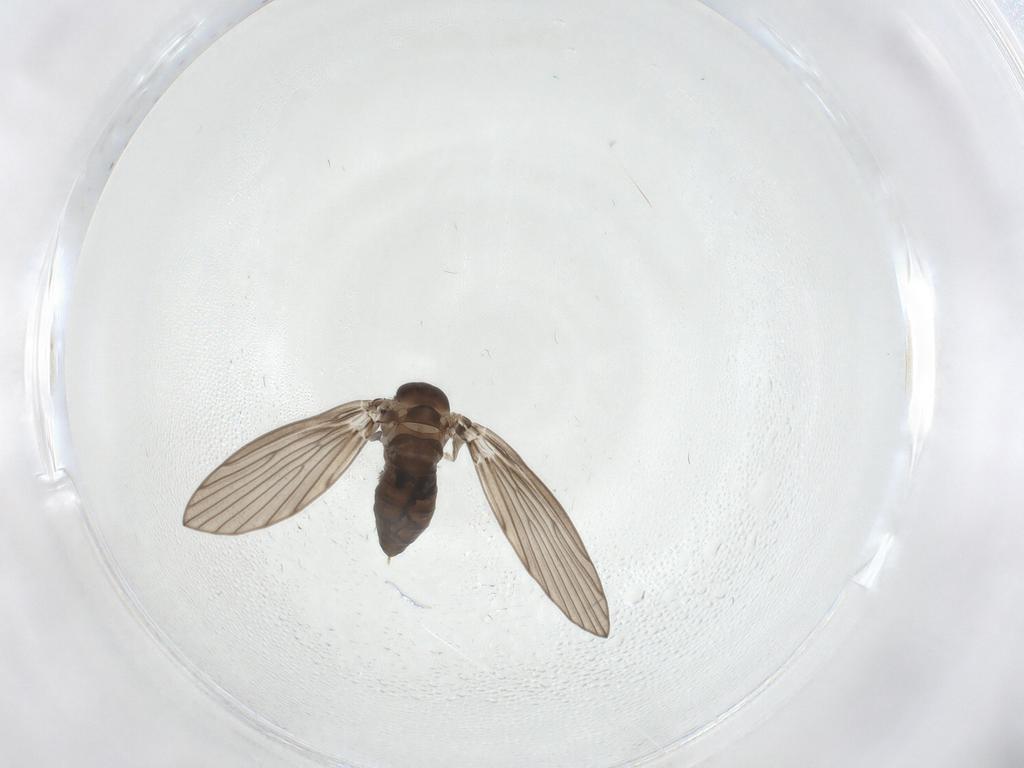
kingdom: Animalia
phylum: Arthropoda
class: Insecta
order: Diptera
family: Psychodidae
